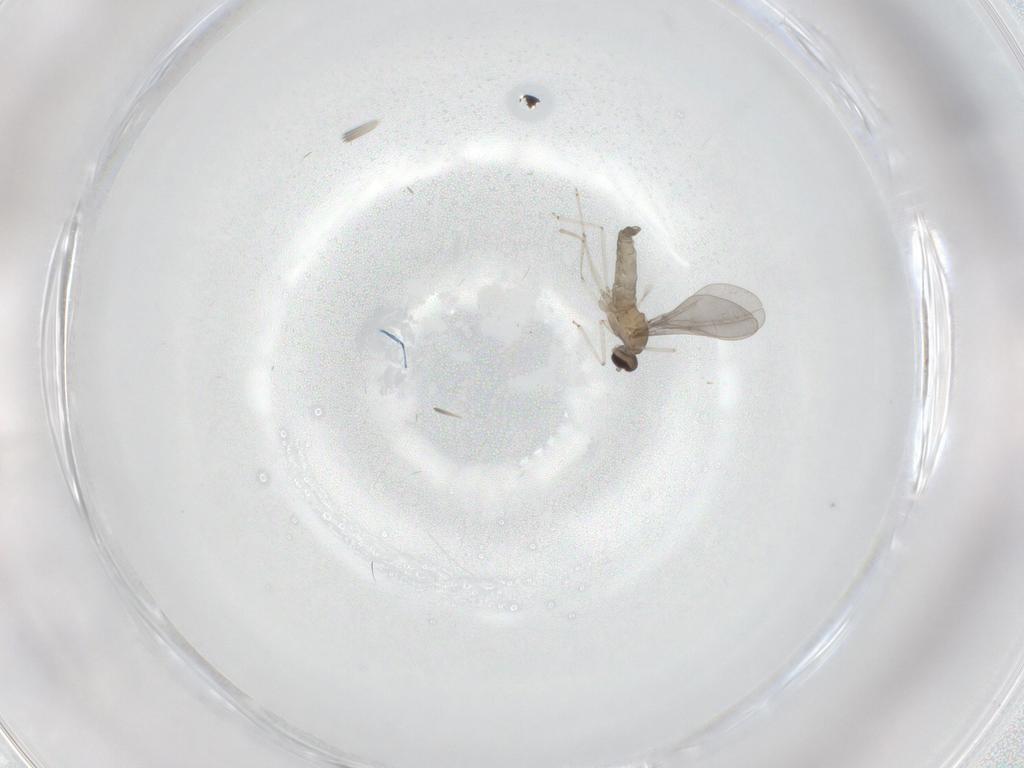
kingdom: Animalia
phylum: Arthropoda
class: Insecta
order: Diptera
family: Cecidomyiidae
